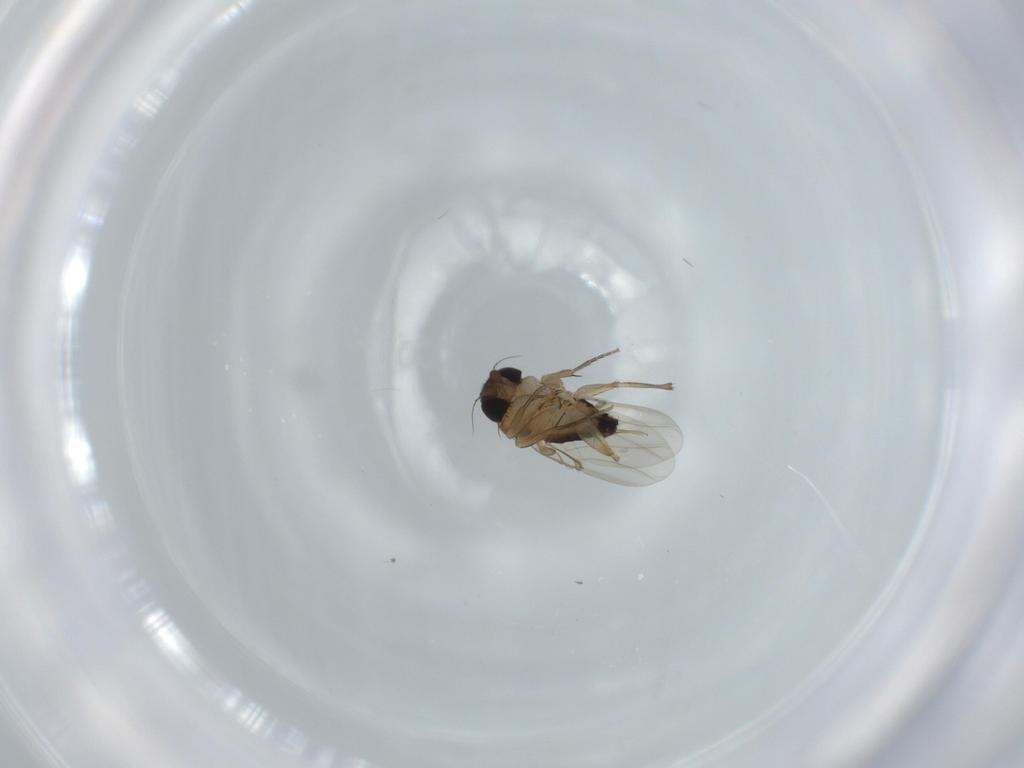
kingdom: Animalia
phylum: Arthropoda
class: Insecta
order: Diptera
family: Phoridae
